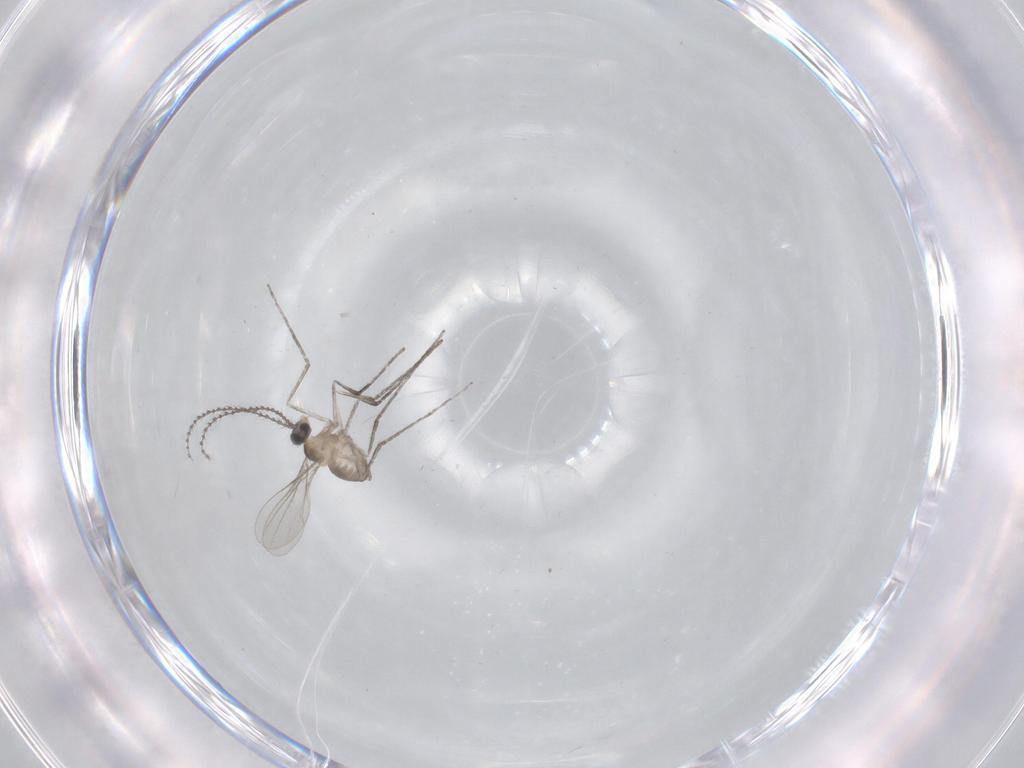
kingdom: Animalia
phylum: Arthropoda
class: Insecta
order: Diptera
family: Cecidomyiidae
